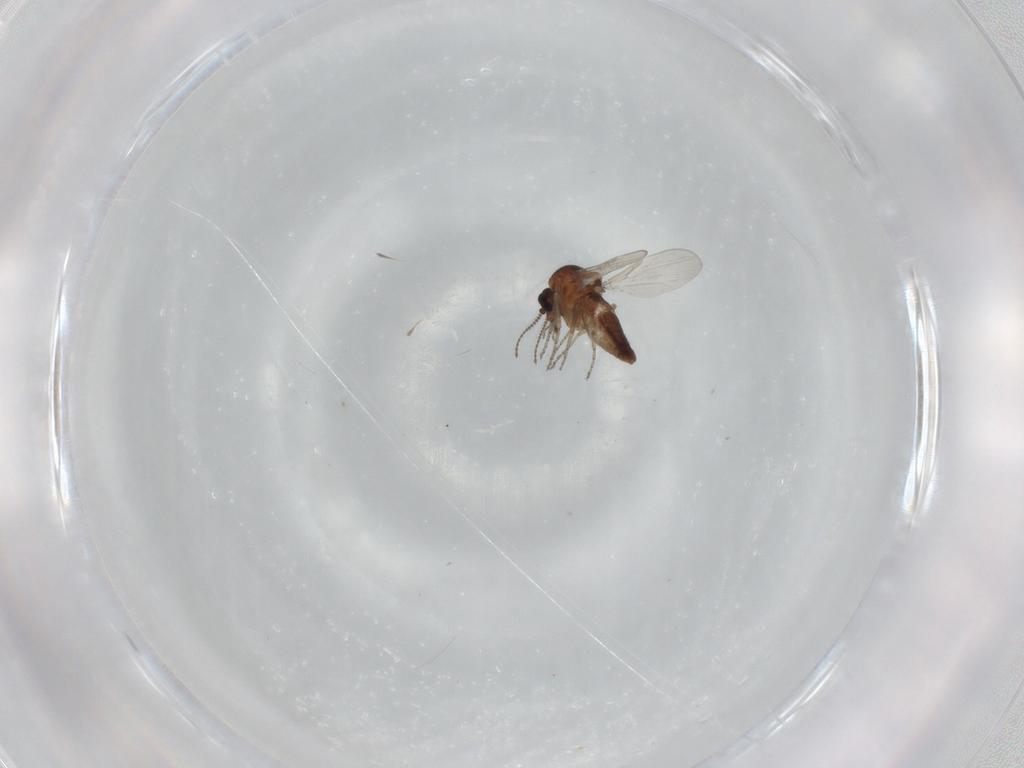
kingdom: Animalia
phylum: Arthropoda
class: Insecta
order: Diptera
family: Ceratopogonidae
